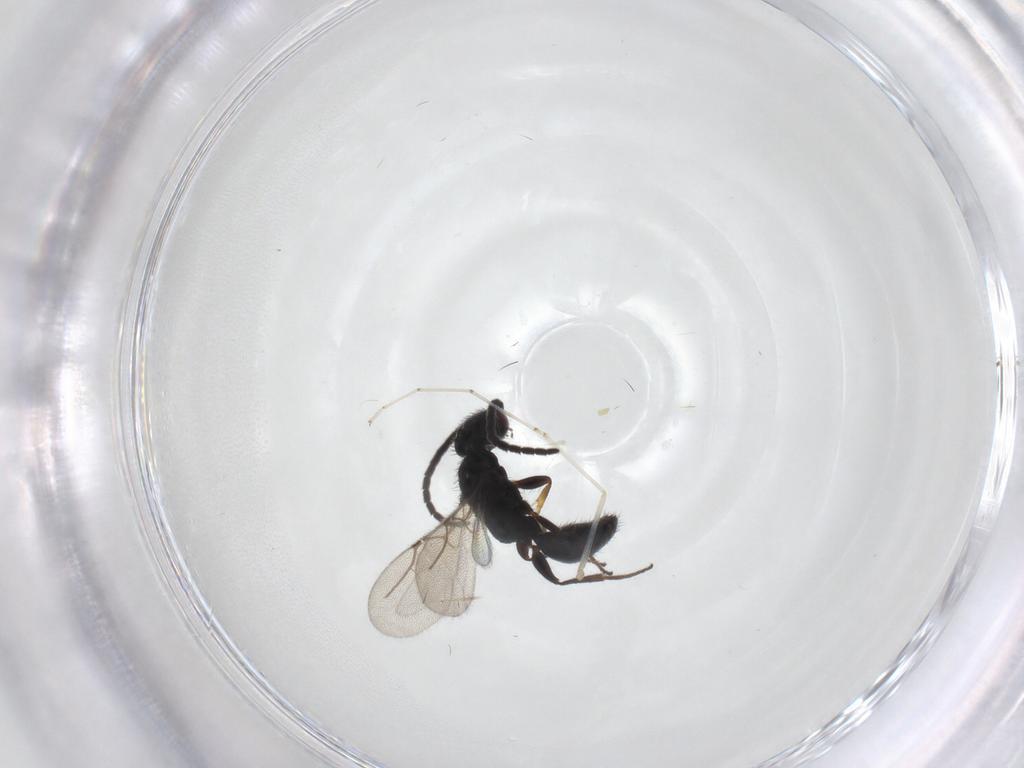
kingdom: Animalia
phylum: Arthropoda
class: Insecta
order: Hymenoptera
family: Bethylidae
